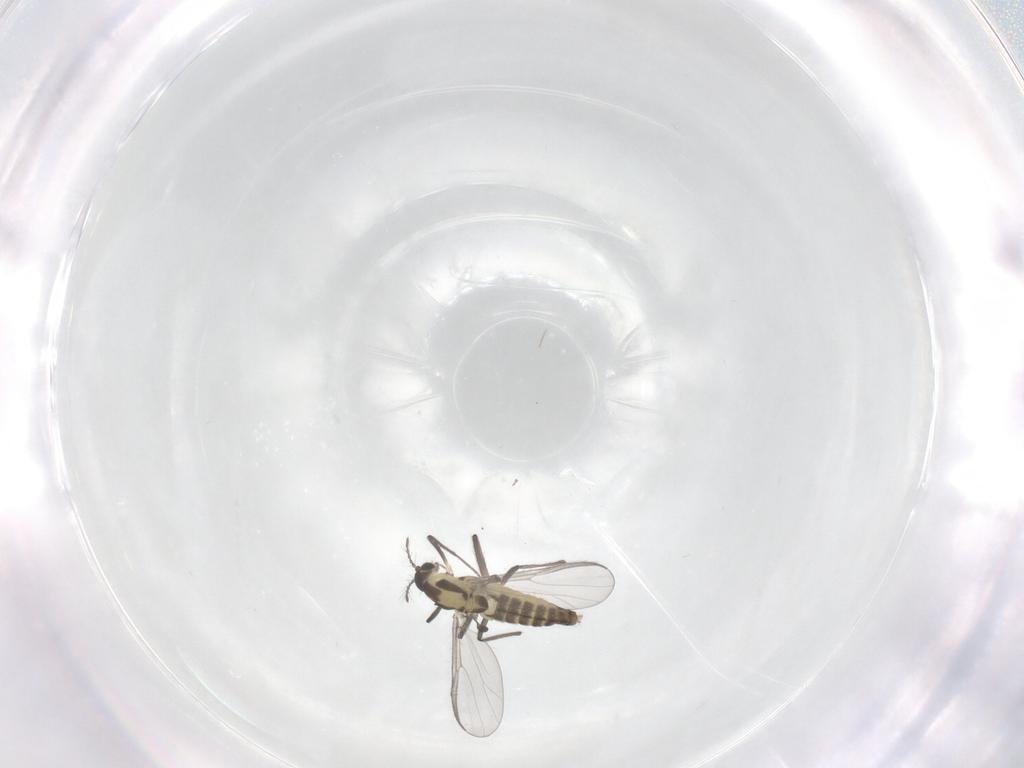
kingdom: Animalia
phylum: Arthropoda
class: Insecta
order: Diptera
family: Chironomidae
